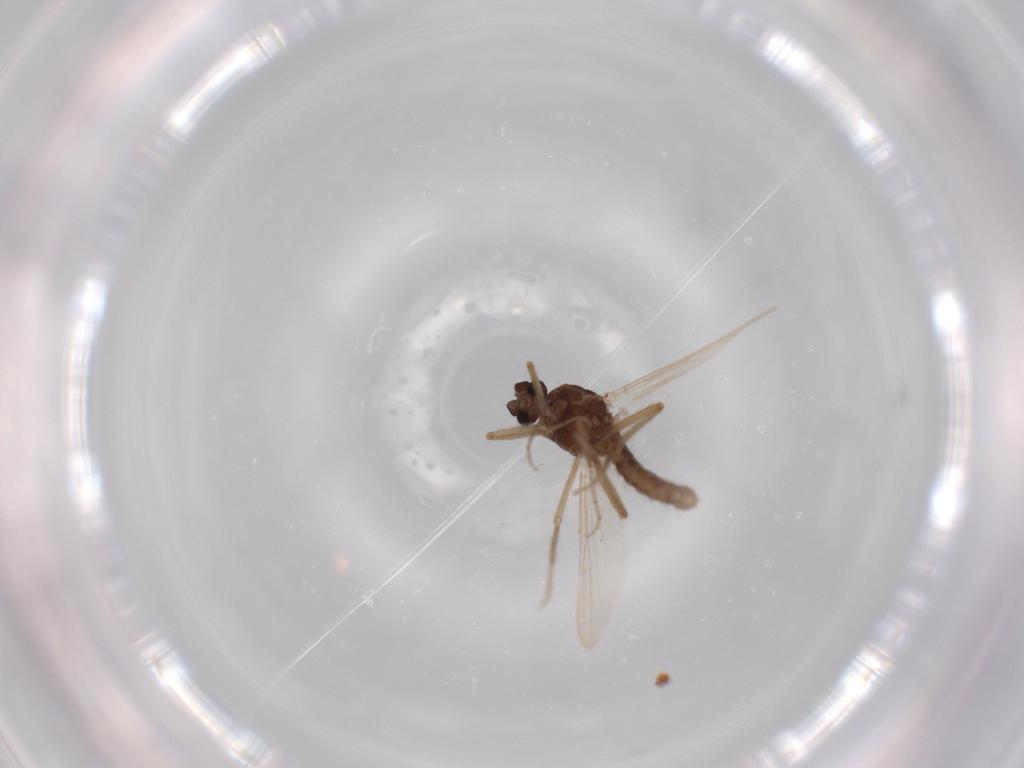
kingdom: Animalia
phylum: Arthropoda
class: Insecta
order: Diptera
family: Ceratopogonidae
